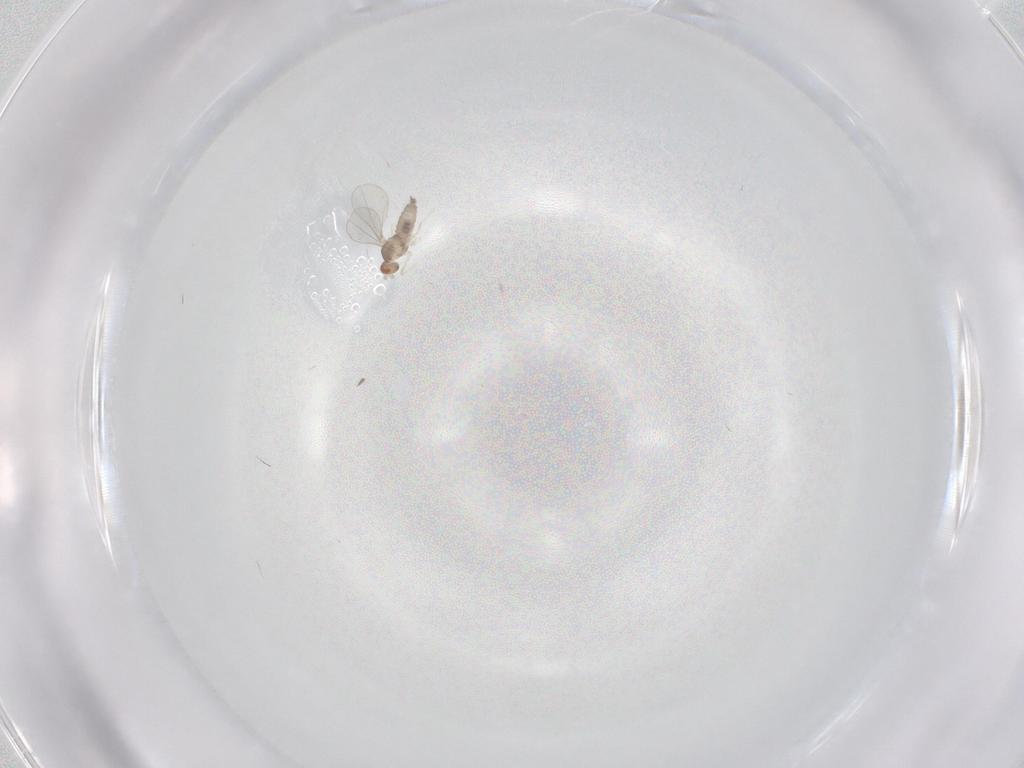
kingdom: Animalia
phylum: Arthropoda
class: Insecta
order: Diptera
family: Cecidomyiidae
